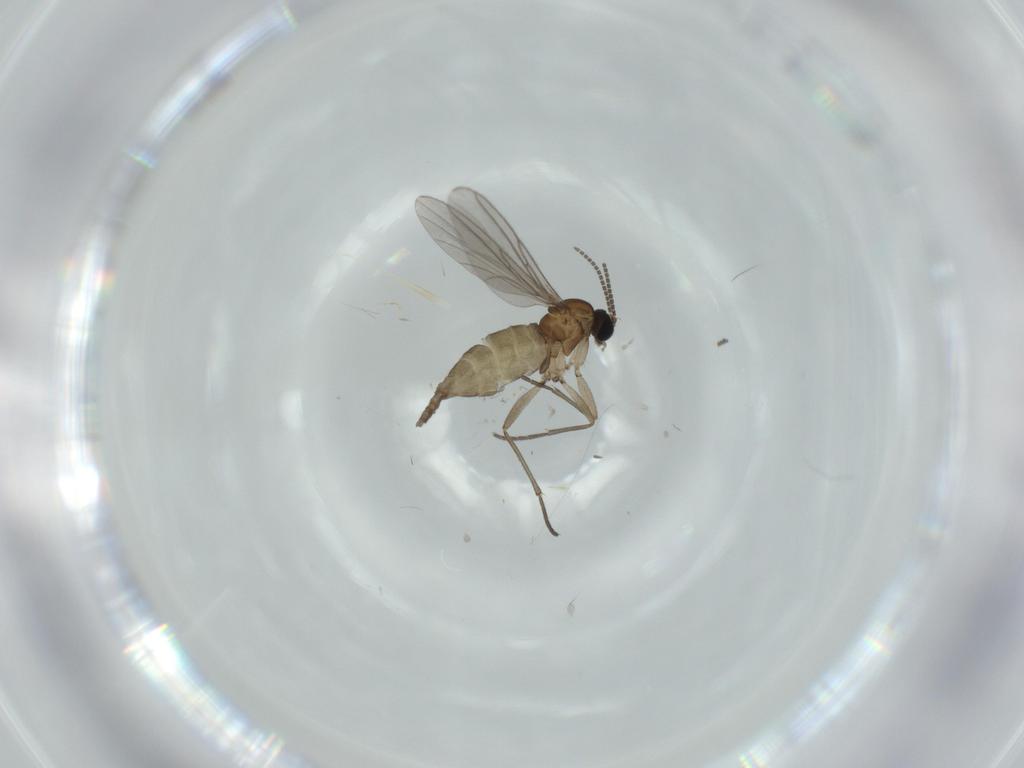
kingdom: Animalia
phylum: Arthropoda
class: Insecta
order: Diptera
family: Sciaridae
